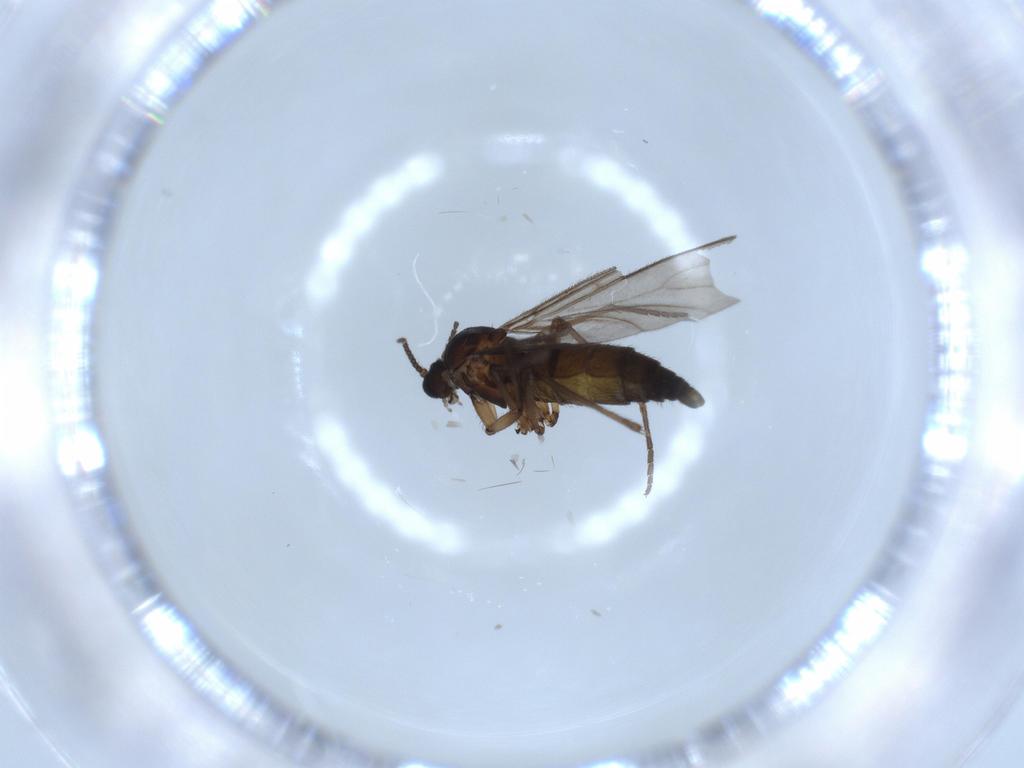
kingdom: Animalia
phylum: Arthropoda
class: Insecta
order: Diptera
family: Sciaridae
